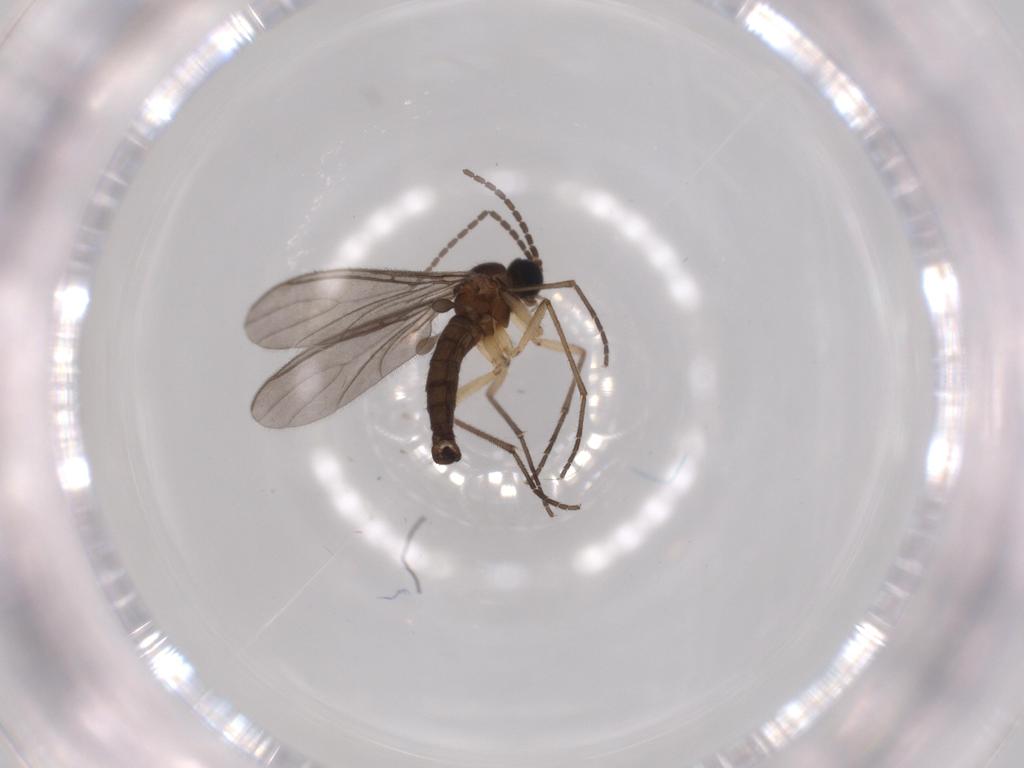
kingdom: Animalia
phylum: Arthropoda
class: Insecta
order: Diptera
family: Sciaridae
